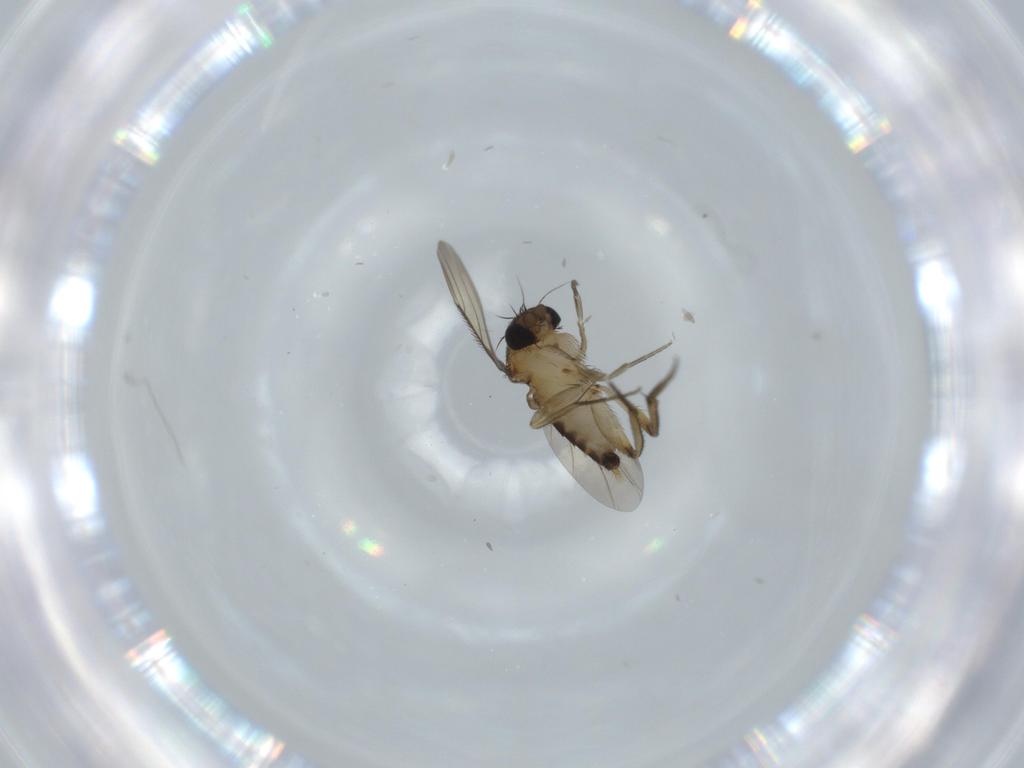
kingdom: Animalia
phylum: Arthropoda
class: Insecta
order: Diptera
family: Phoridae
